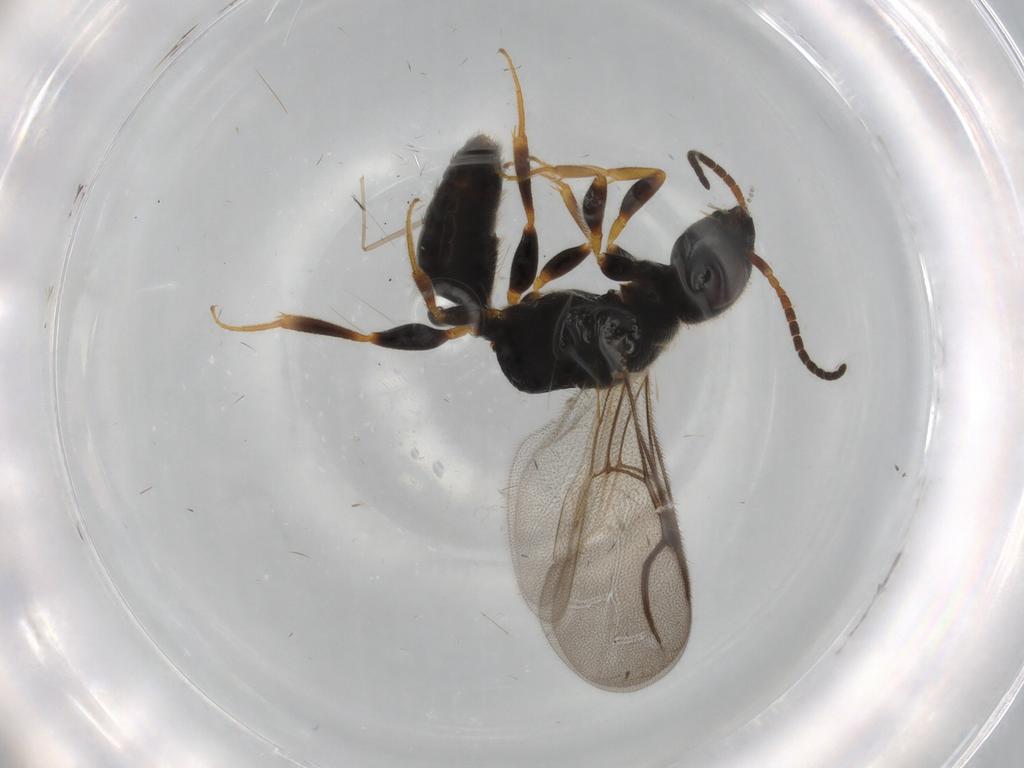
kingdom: Animalia
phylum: Arthropoda
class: Insecta
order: Hymenoptera
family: Bethylidae
